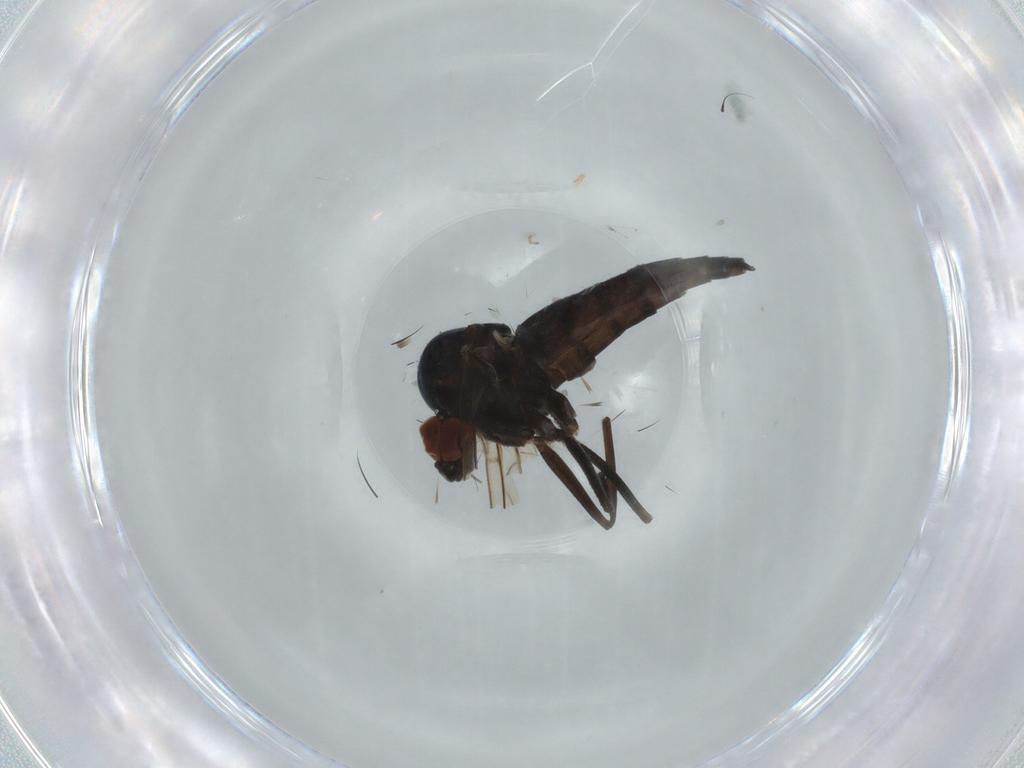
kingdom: Animalia
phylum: Arthropoda
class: Insecta
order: Diptera
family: Hybotidae
